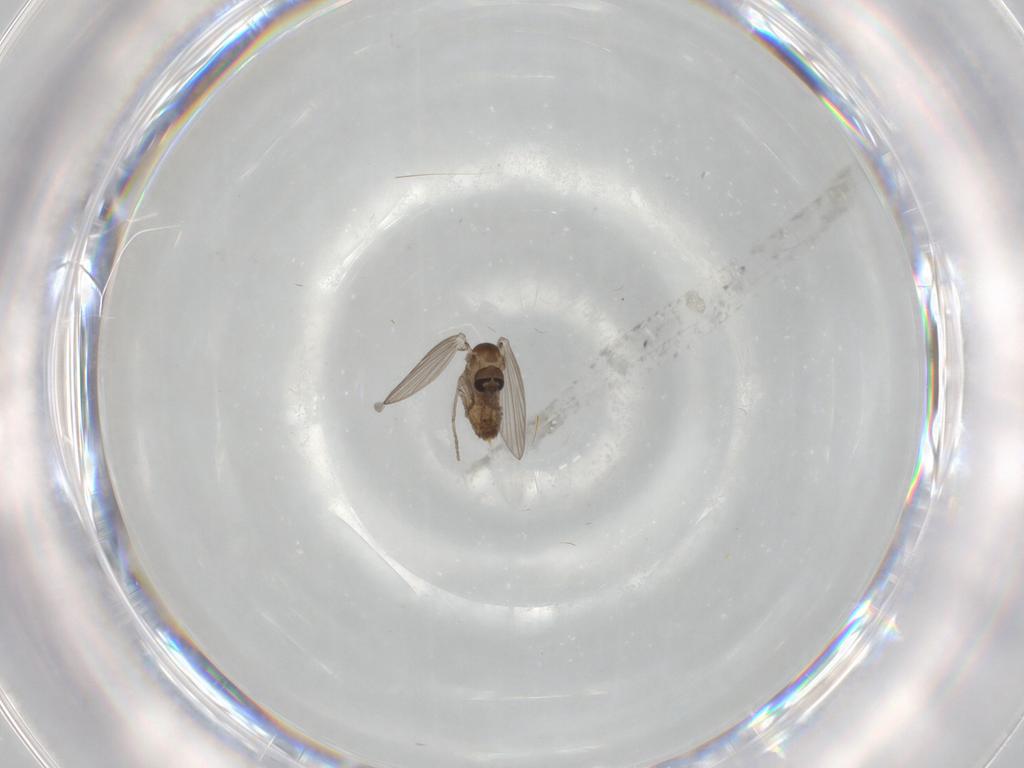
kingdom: Animalia
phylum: Arthropoda
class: Insecta
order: Diptera
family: Psychodidae
